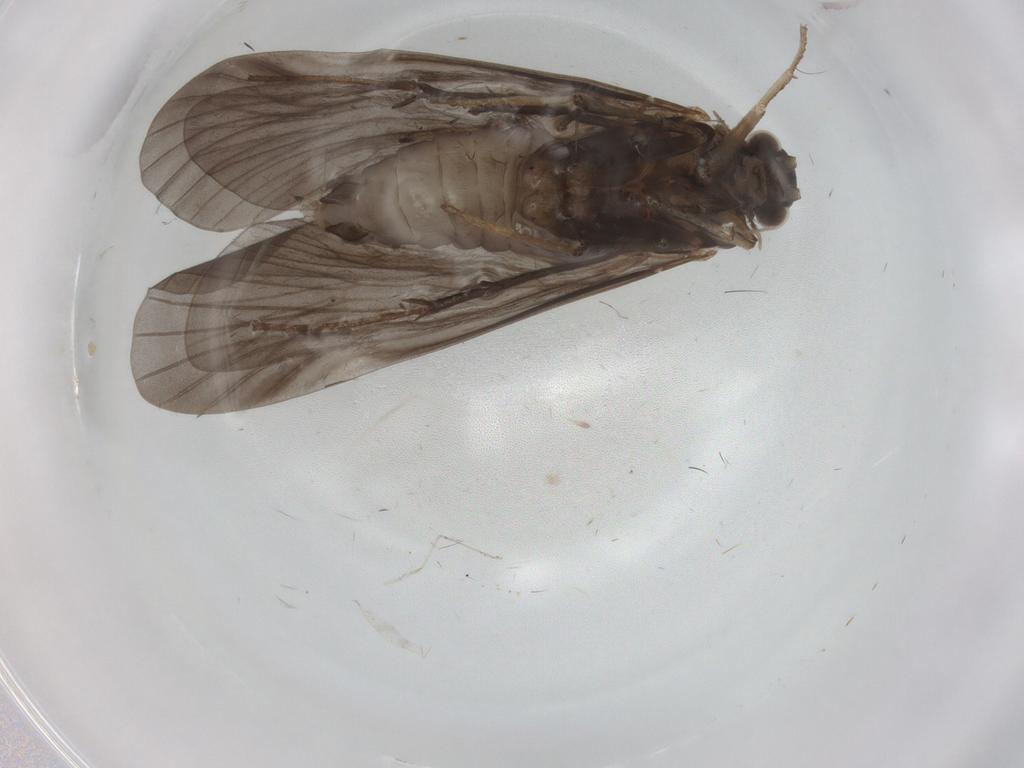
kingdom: Animalia
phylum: Arthropoda
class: Insecta
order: Trichoptera
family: Hydropsychidae
